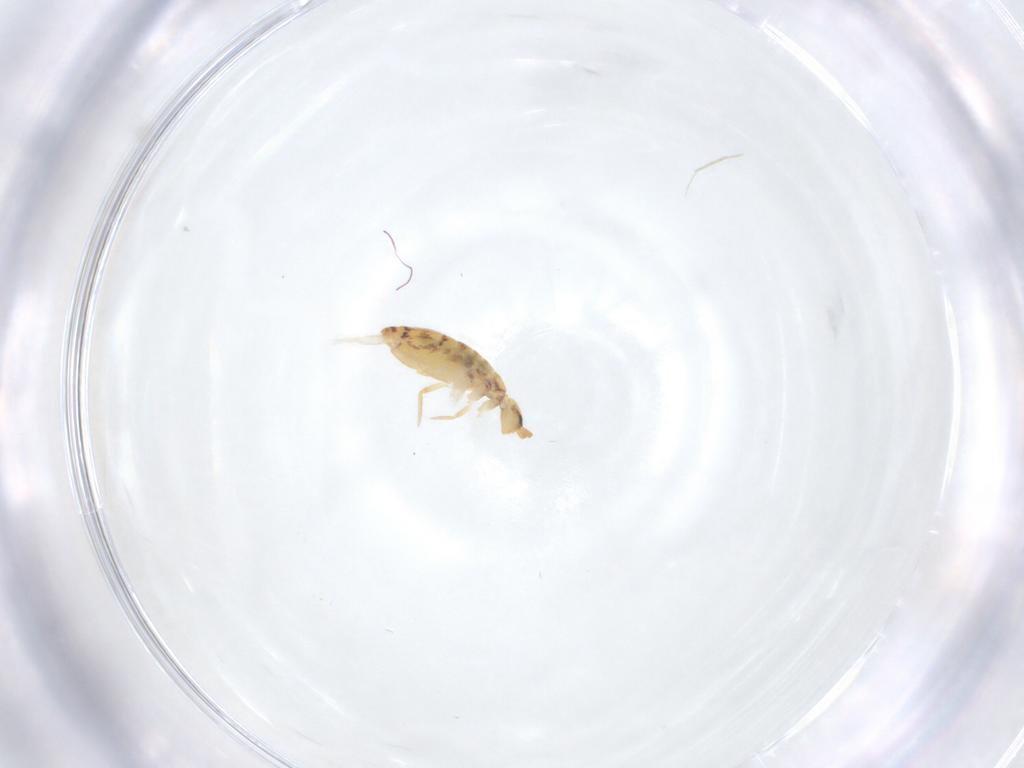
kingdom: Animalia
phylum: Arthropoda
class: Collembola
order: Entomobryomorpha
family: Entomobryidae
